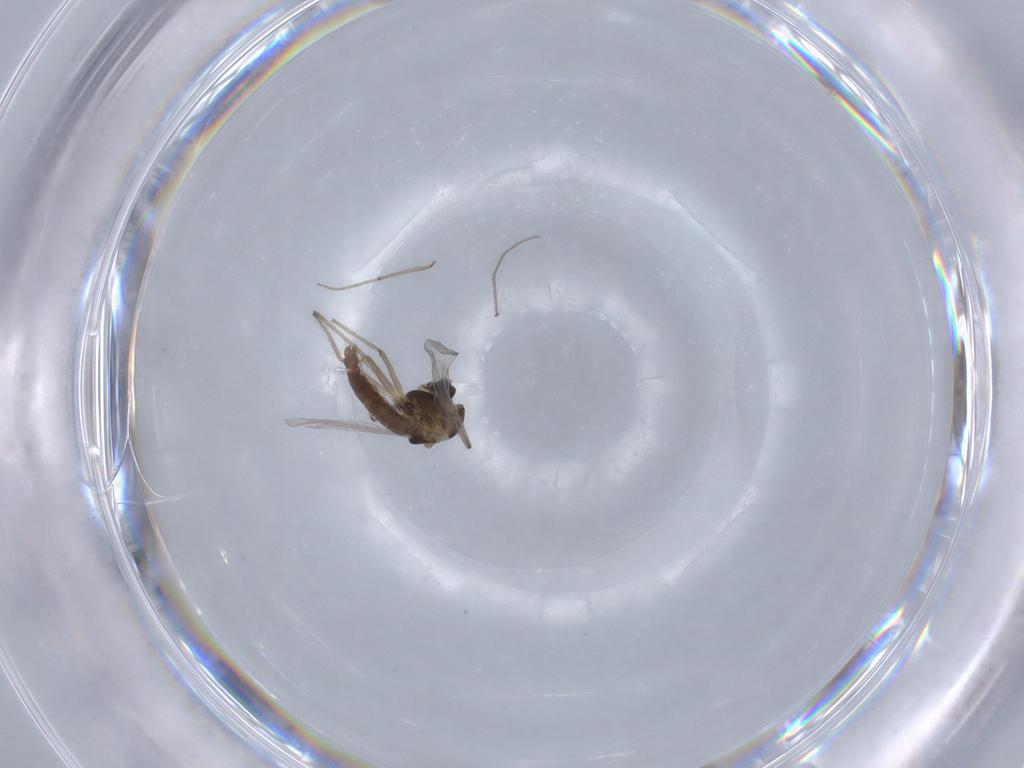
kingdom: Animalia
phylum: Arthropoda
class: Insecta
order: Diptera
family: Chironomidae
